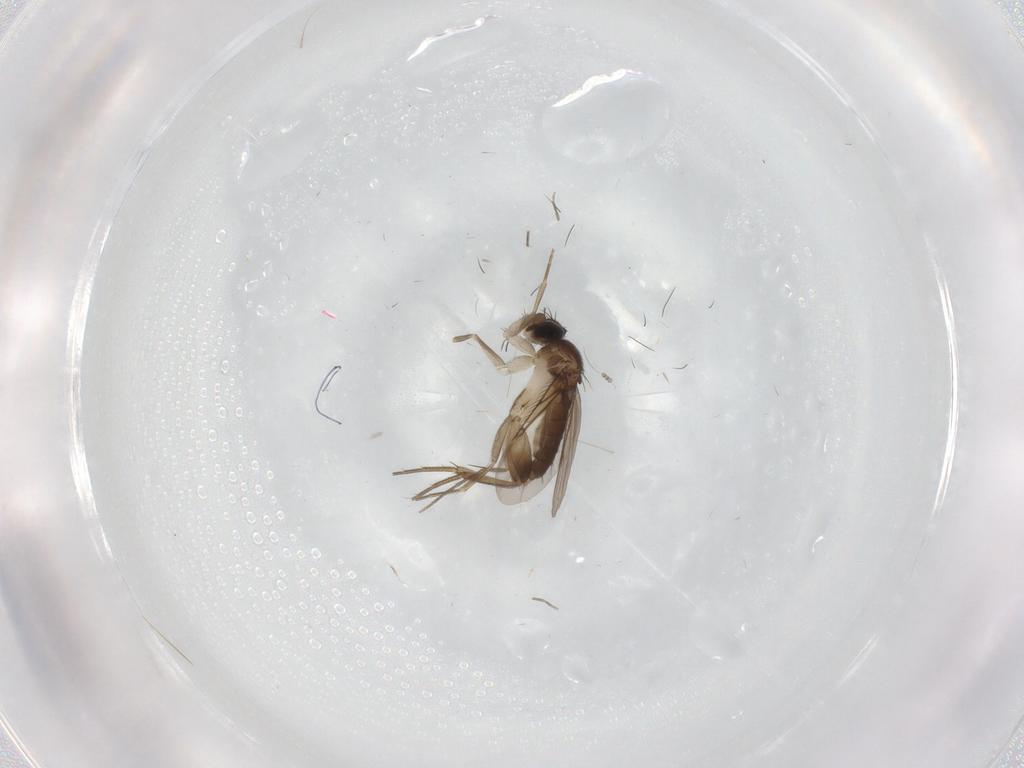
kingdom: Animalia
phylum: Arthropoda
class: Insecta
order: Diptera
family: Phoridae
